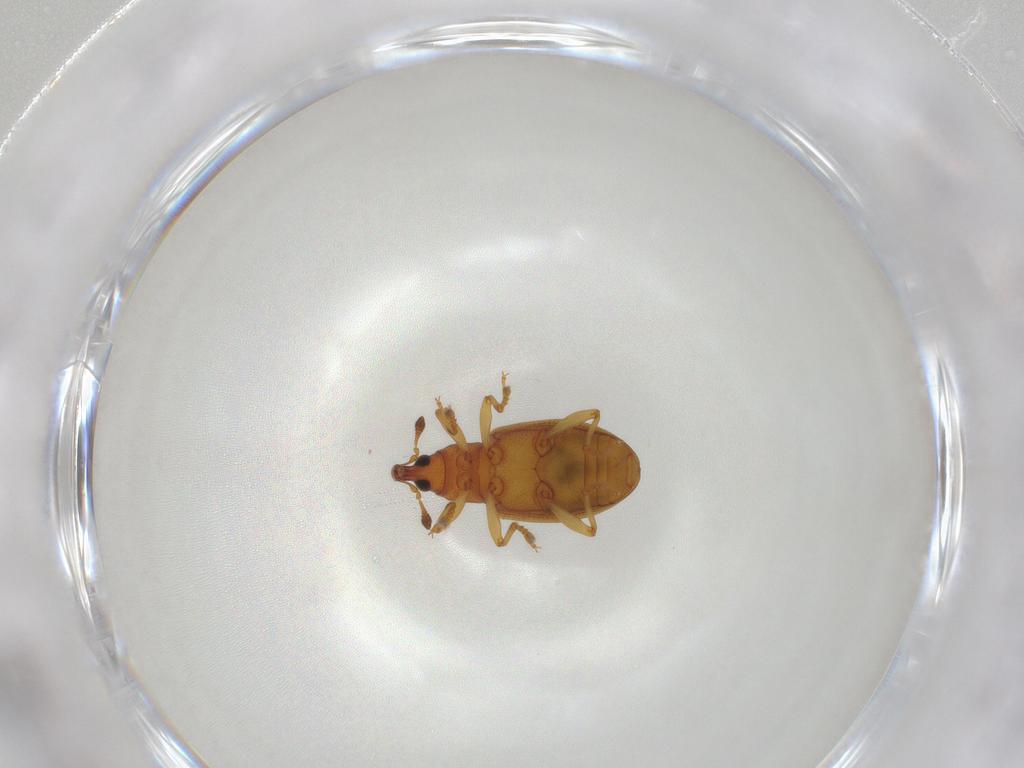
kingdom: Animalia
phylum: Arthropoda
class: Insecta
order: Coleoptera
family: Curculionidae
